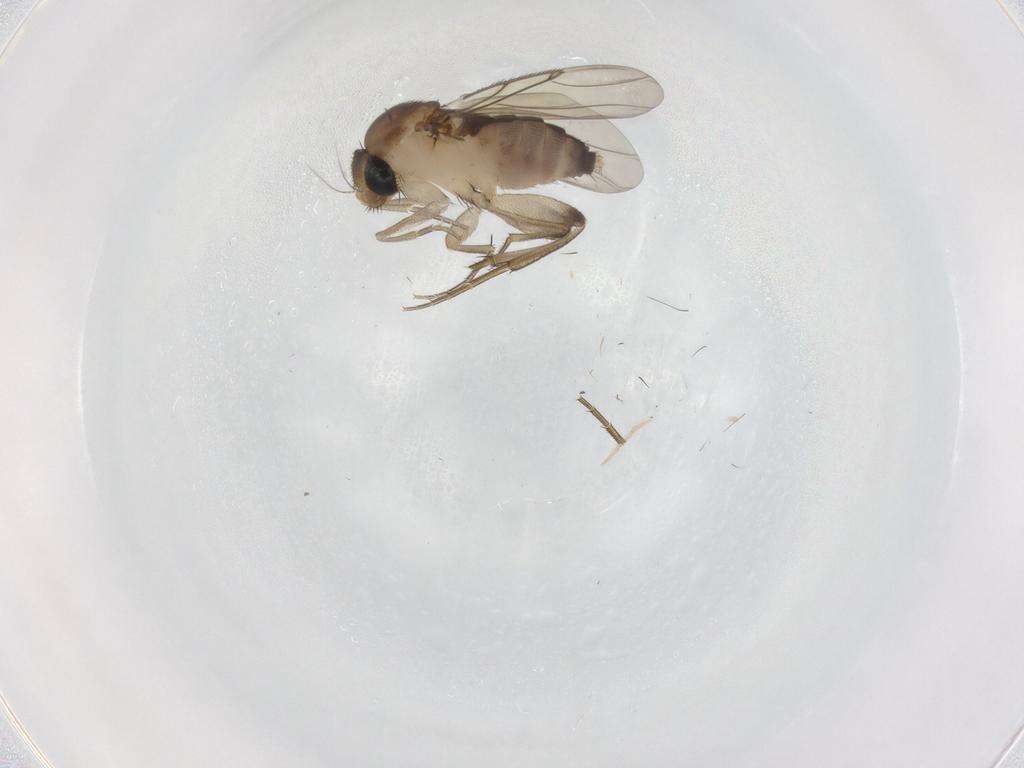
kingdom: Animalia
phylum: Arthropoda
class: Insecta
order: Diptera
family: Phoridae
